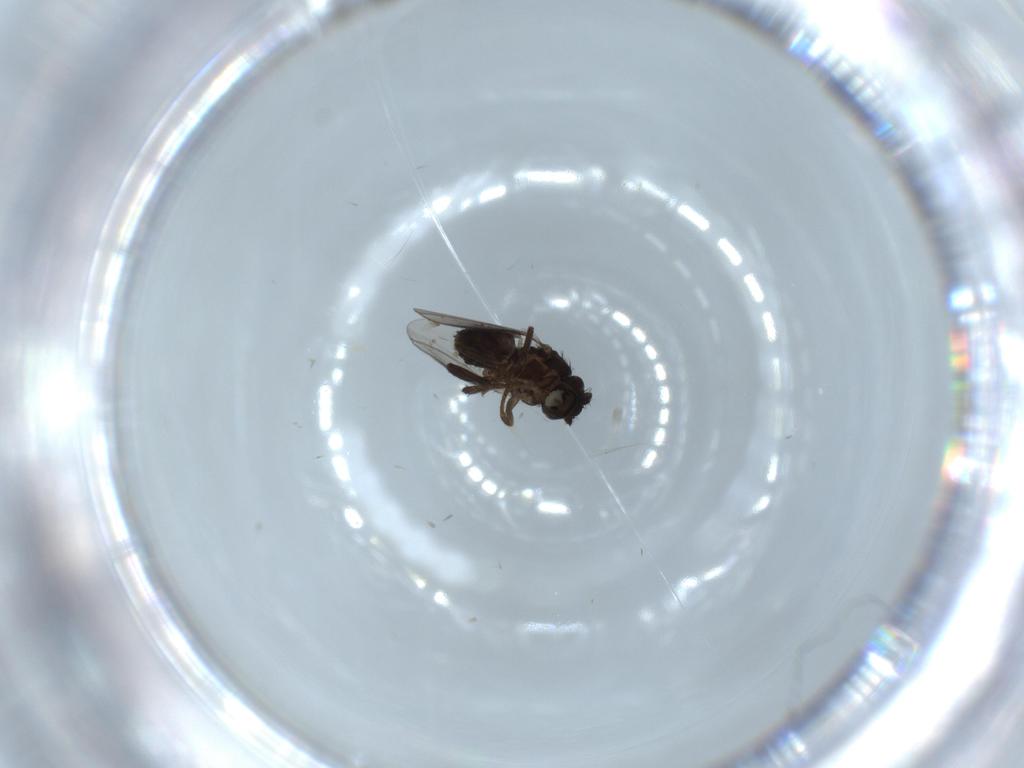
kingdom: Animalia
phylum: Arthropoda
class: Insecta
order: Diptera
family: Sphaeroceridae
